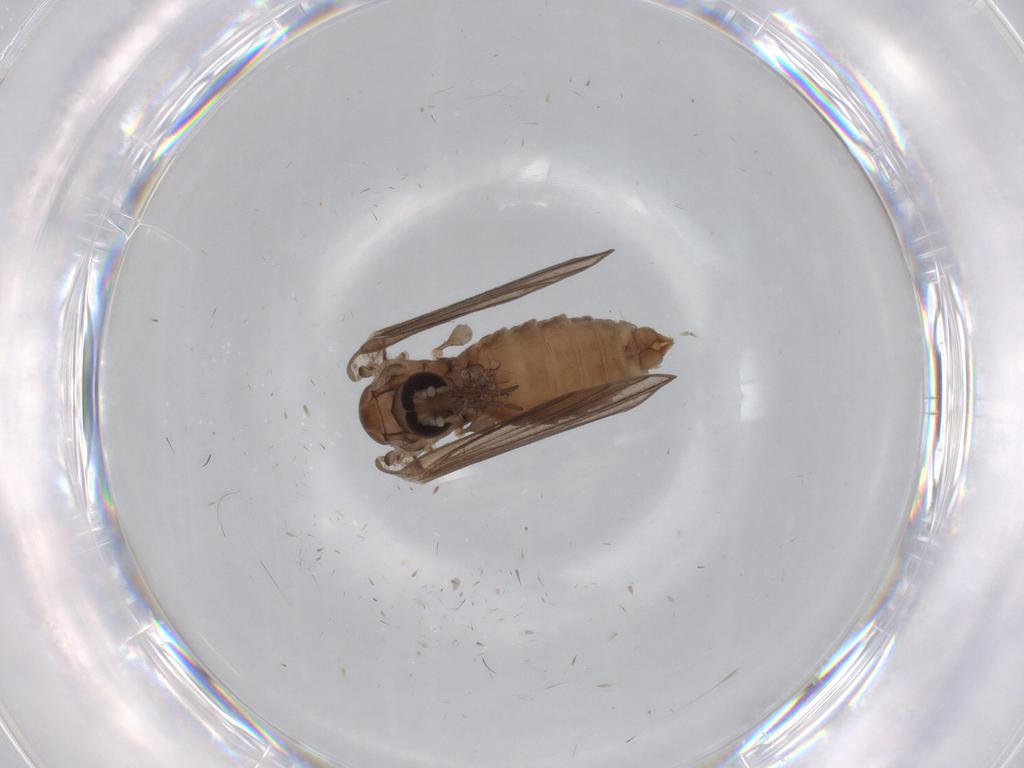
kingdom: Animalia
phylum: Arthropoda
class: Insecta
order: Diptera
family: Psychodidae
